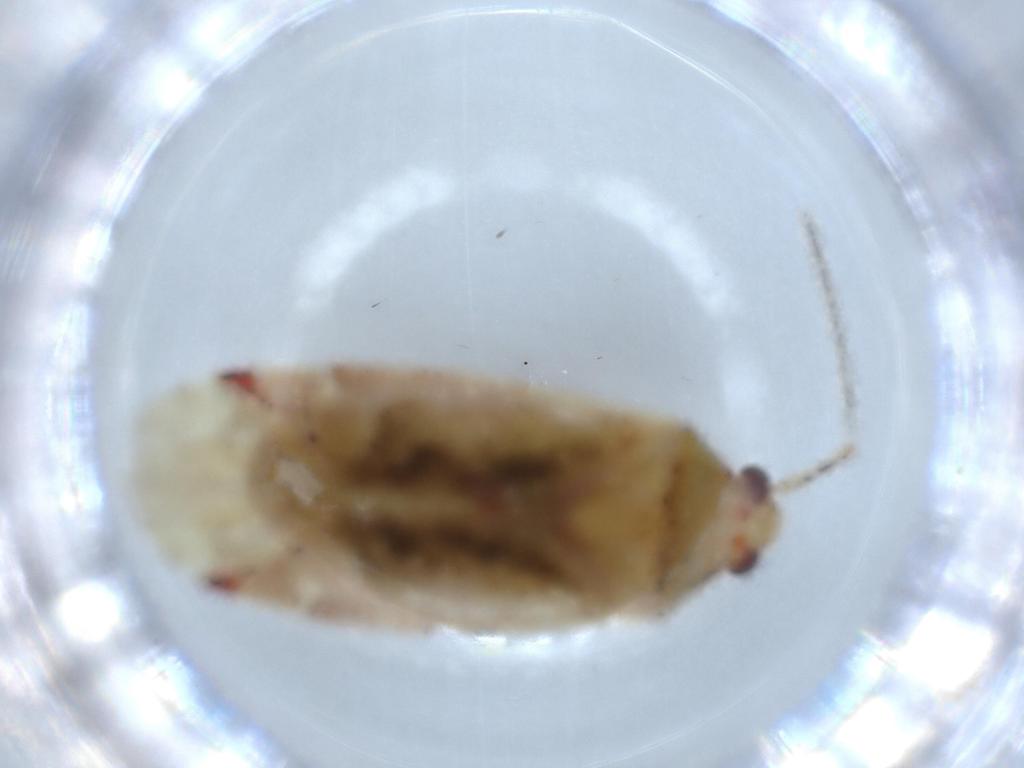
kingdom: Animalia
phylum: Arthropoda
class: Insecta
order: Hemiptera
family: Miridae
